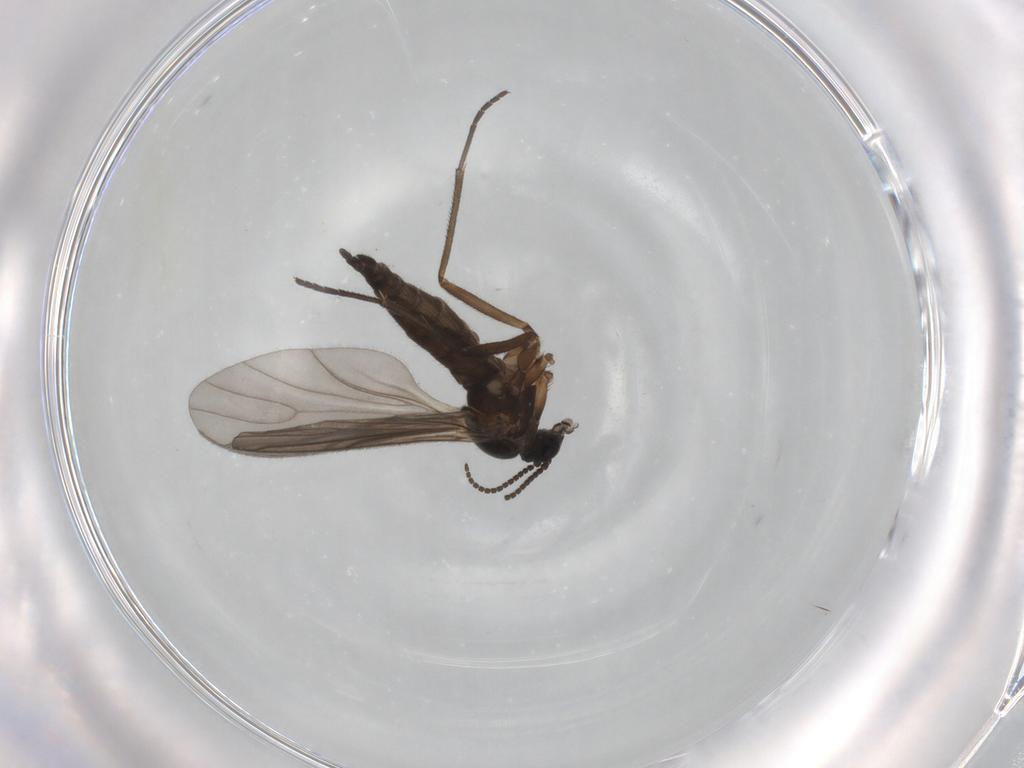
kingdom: Animalia
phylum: Arthropoda
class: Insecta
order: Diptera
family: Sciaridae
